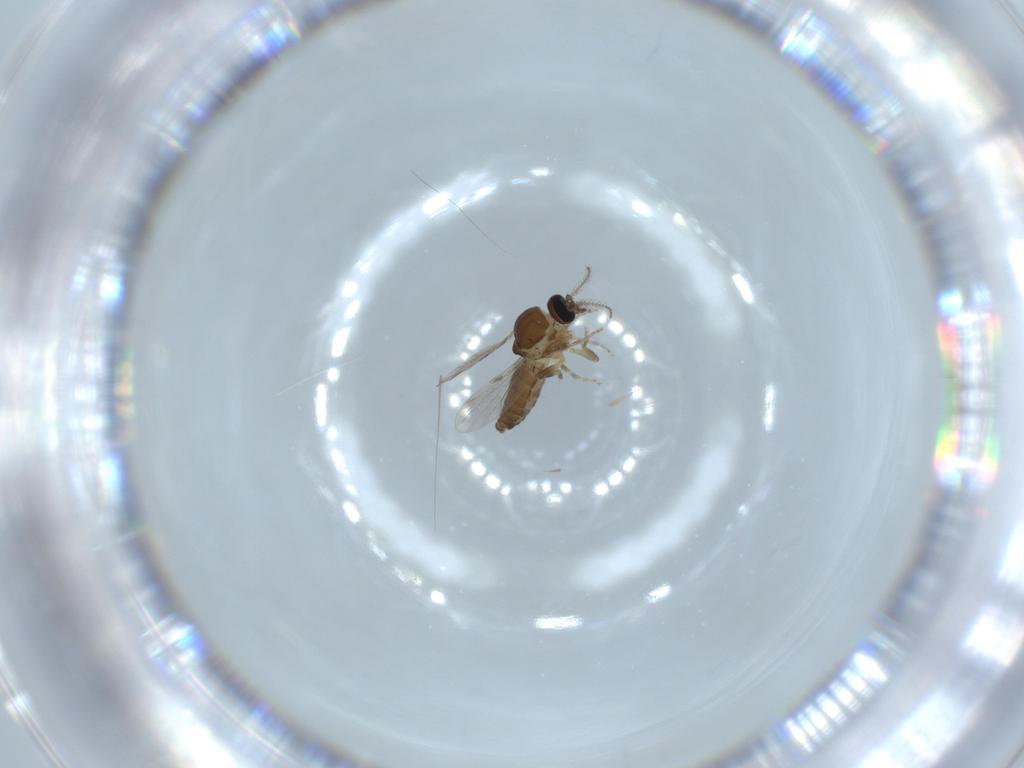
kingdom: Animalia
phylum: Arthropoda
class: Insecta
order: Diptera
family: Ceratopogonidae
